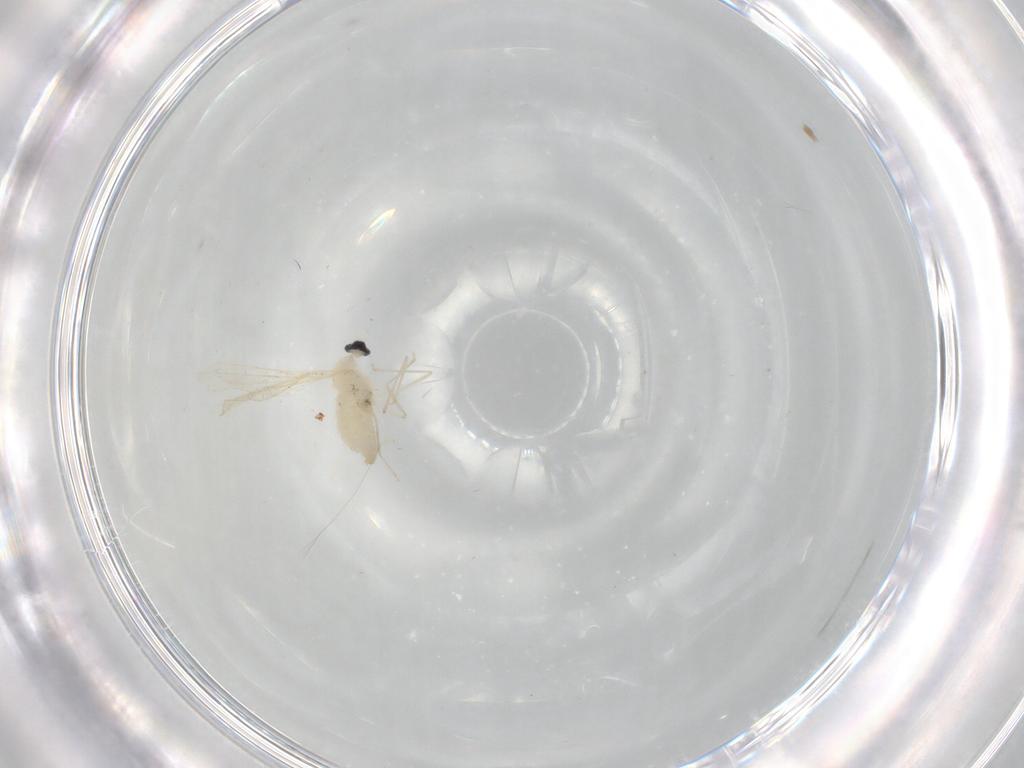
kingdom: Animalia
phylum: Arthropoda
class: Insecta
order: Diptera
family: Cecidomyiidae
